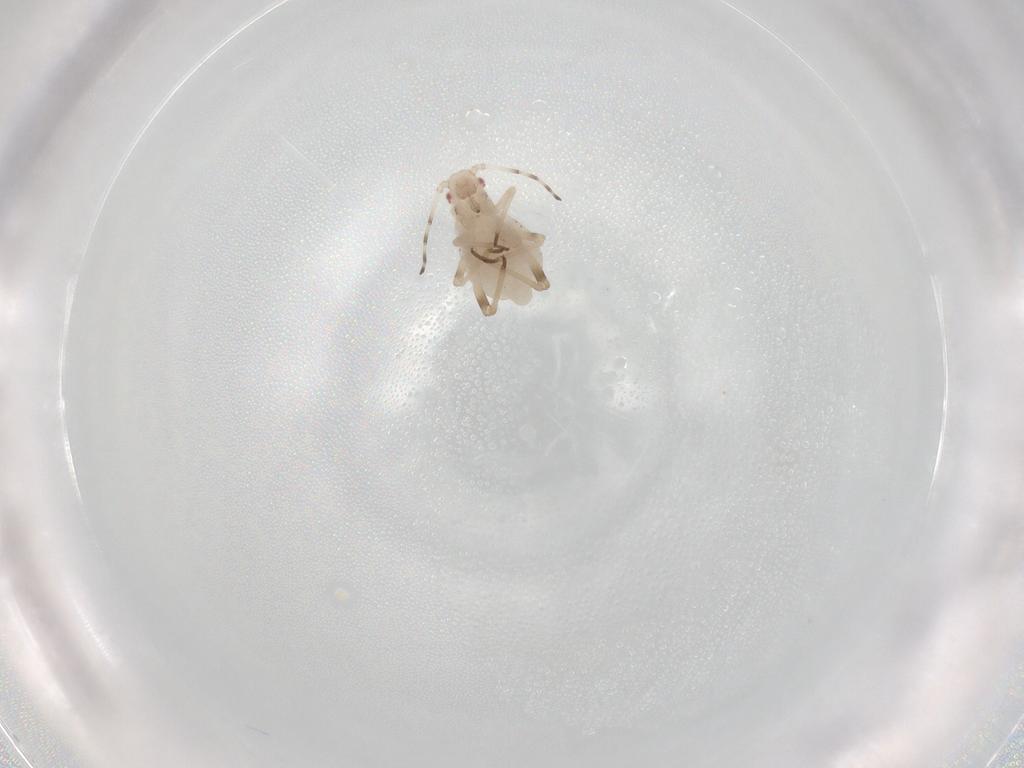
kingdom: Animalia
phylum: Arthropoda
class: Insecta
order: Hemiptera
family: Aphididae
